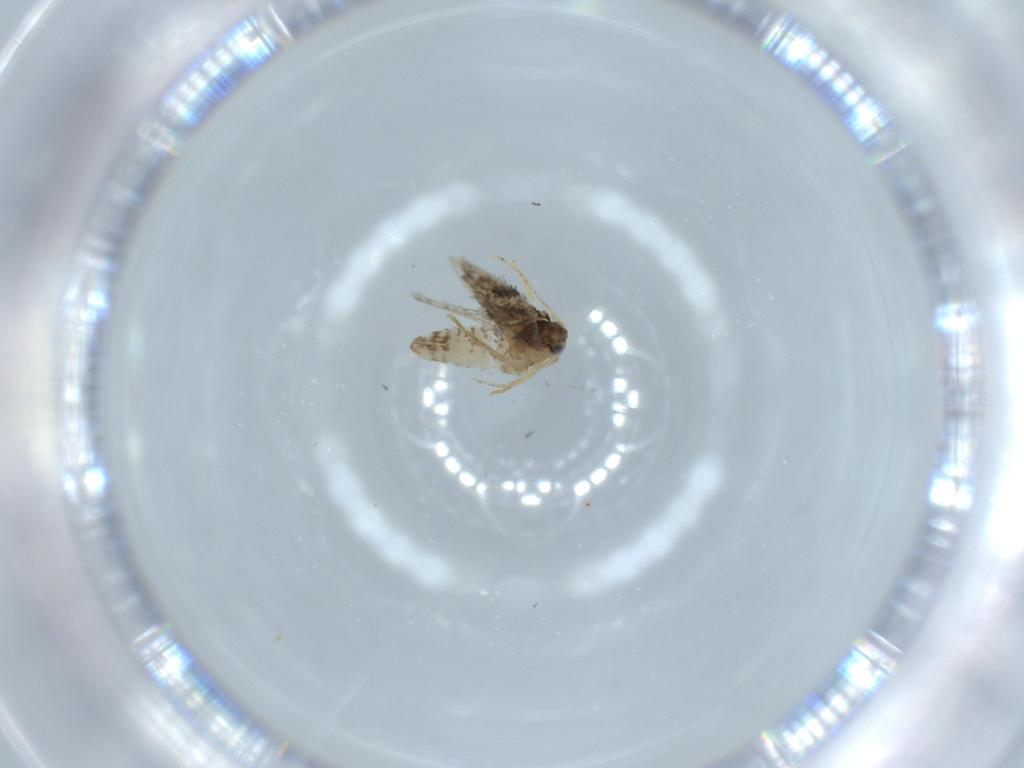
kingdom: Animalia
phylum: Arthropoda
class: Insecta
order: Lepidoptera
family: Nepticulidae
